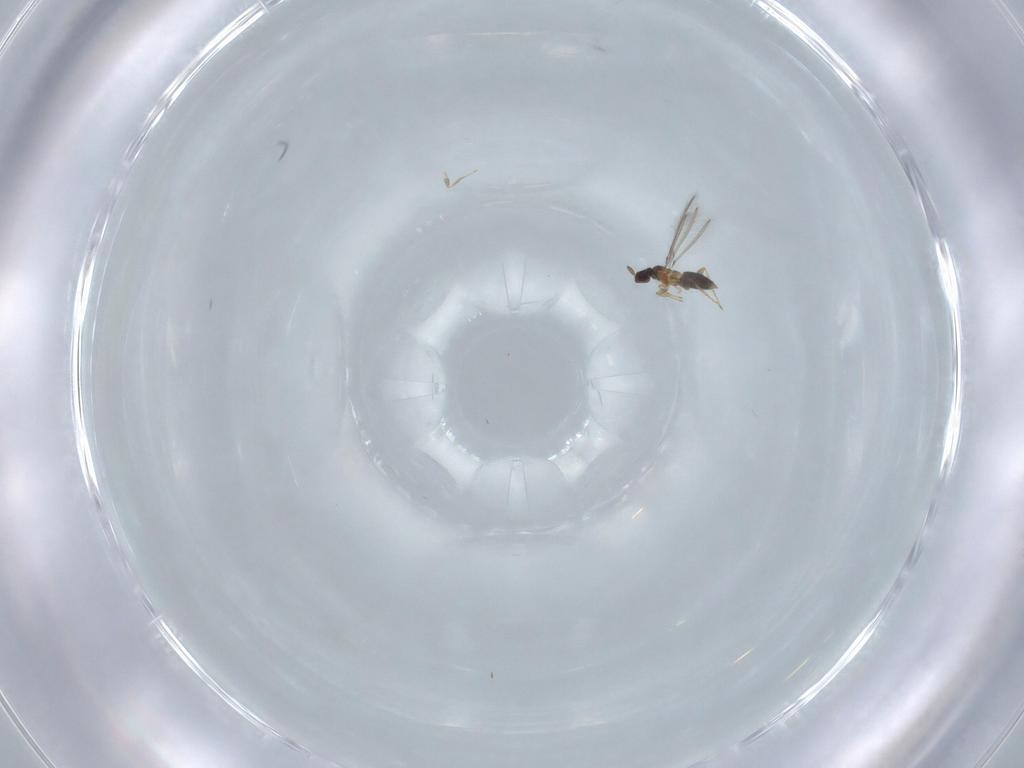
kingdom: Animalia
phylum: Arthropoda
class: Insecta
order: Hymenoptera
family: Mymaridae
